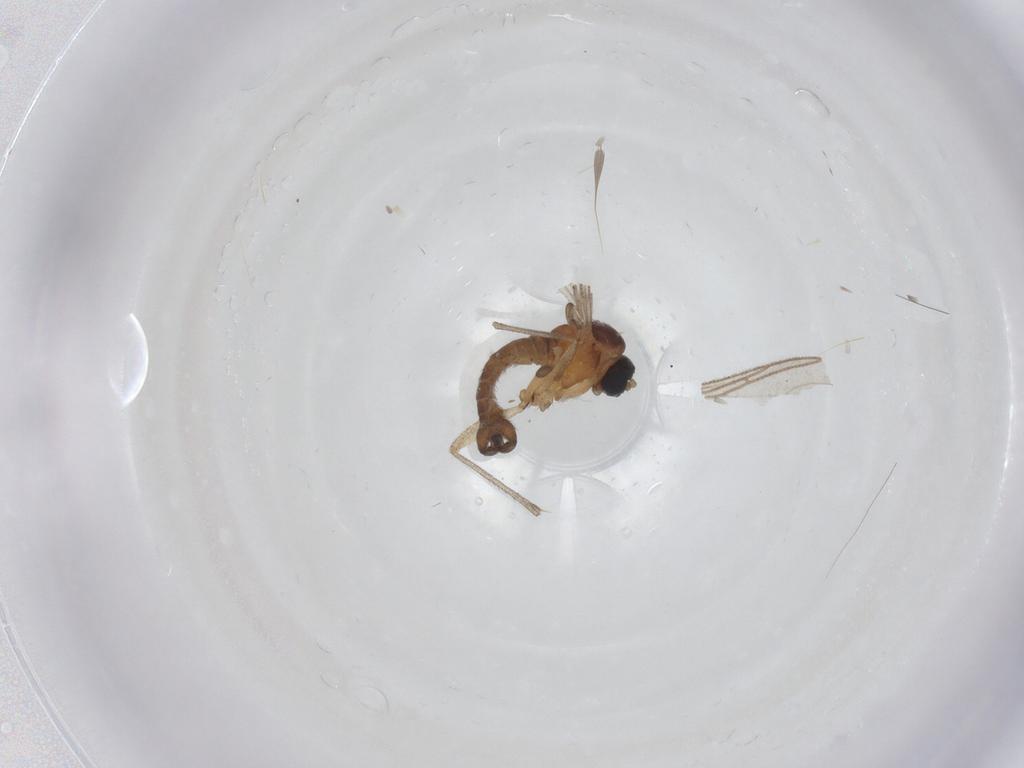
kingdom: Animalia
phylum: Arthropoda
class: Insecta
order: Diptera
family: Sciaridae
